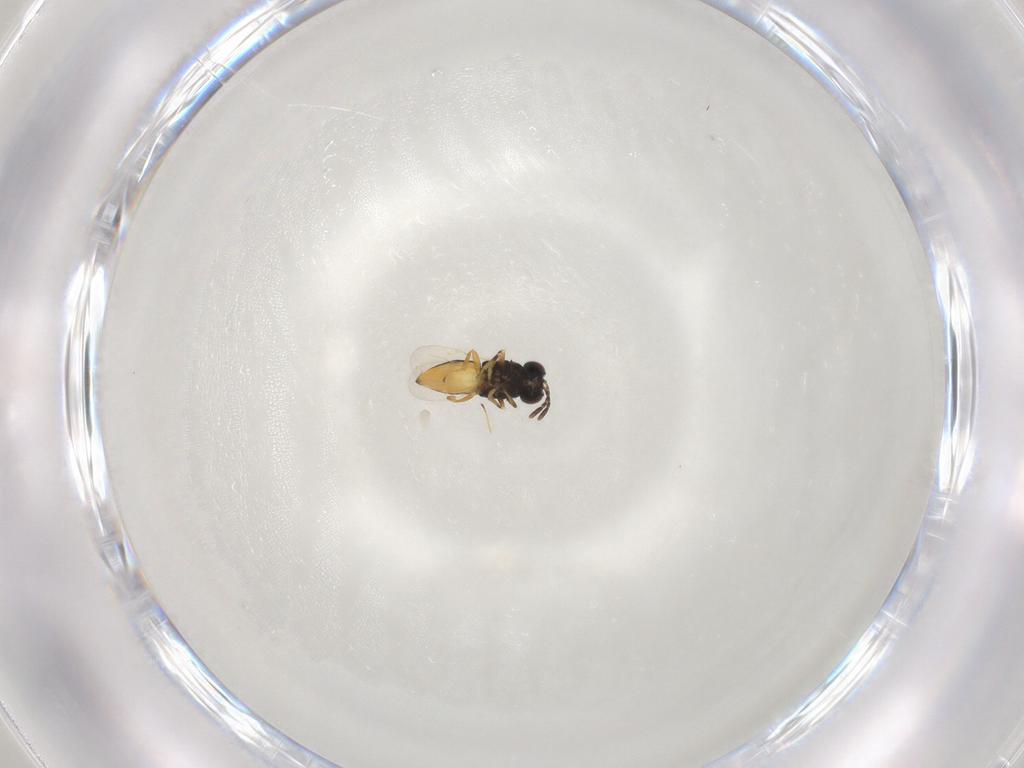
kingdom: Animalia
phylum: Arthropoda
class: Insecta
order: Hymenoptera
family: Encyrtidae
